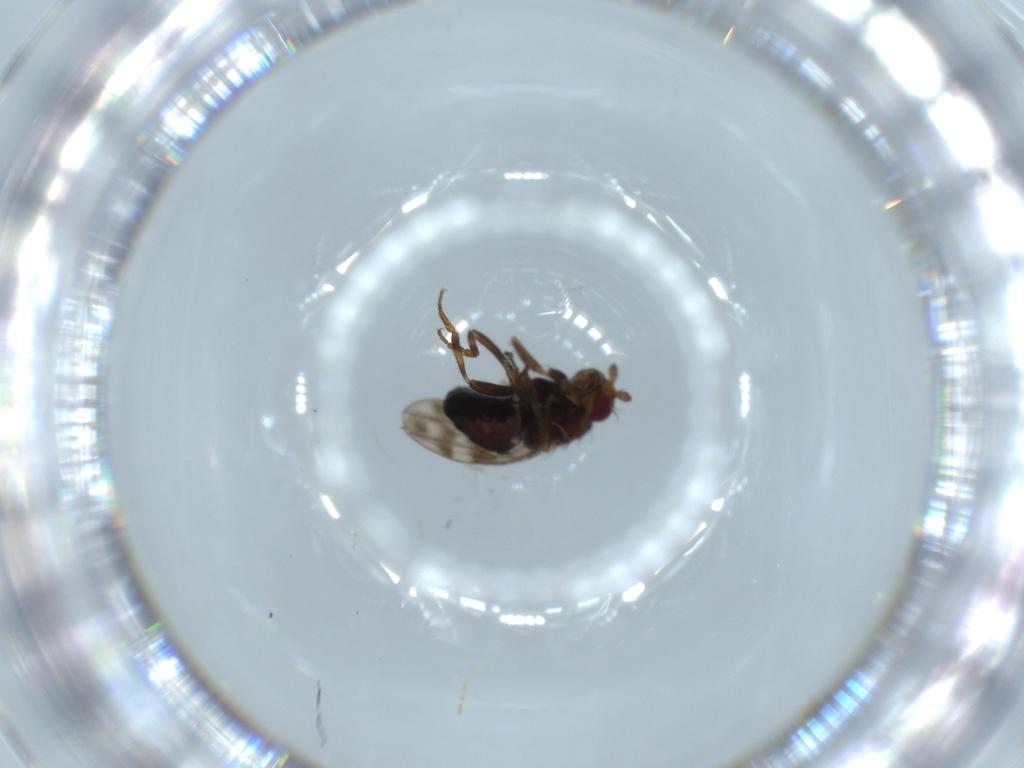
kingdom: Animalia
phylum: Arthropoda
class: Insecta
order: Diptera
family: Sphaeroceridae
